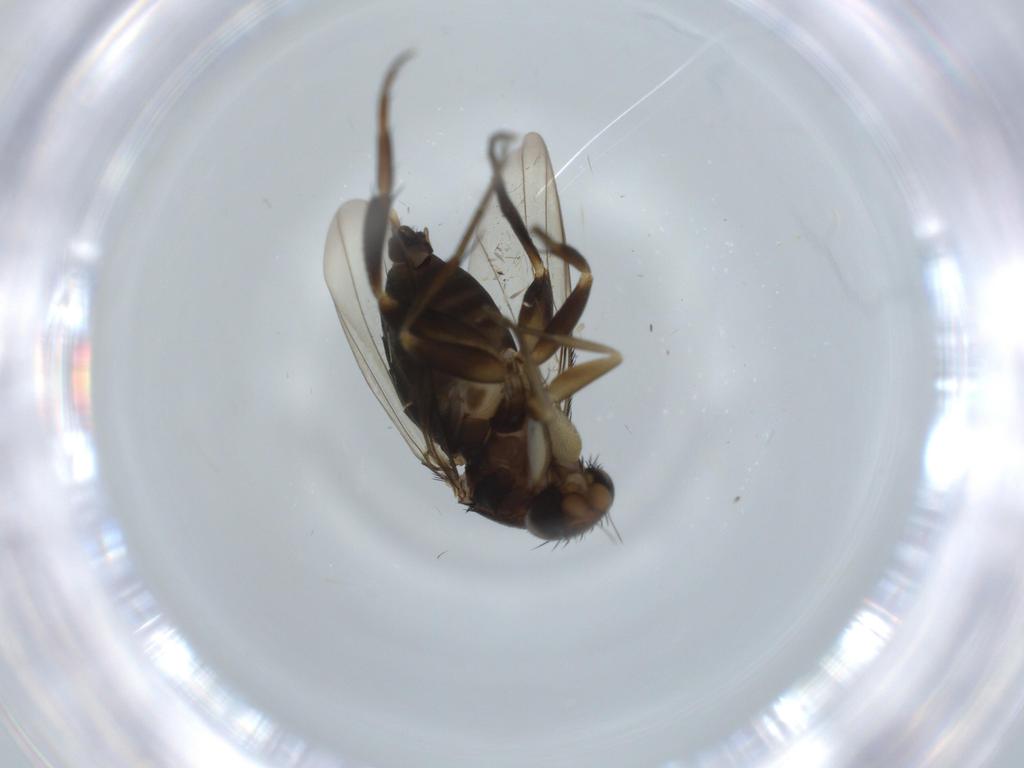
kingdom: Animalia
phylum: Arthropoda
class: Insecta
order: Diptera
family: Phoridae
